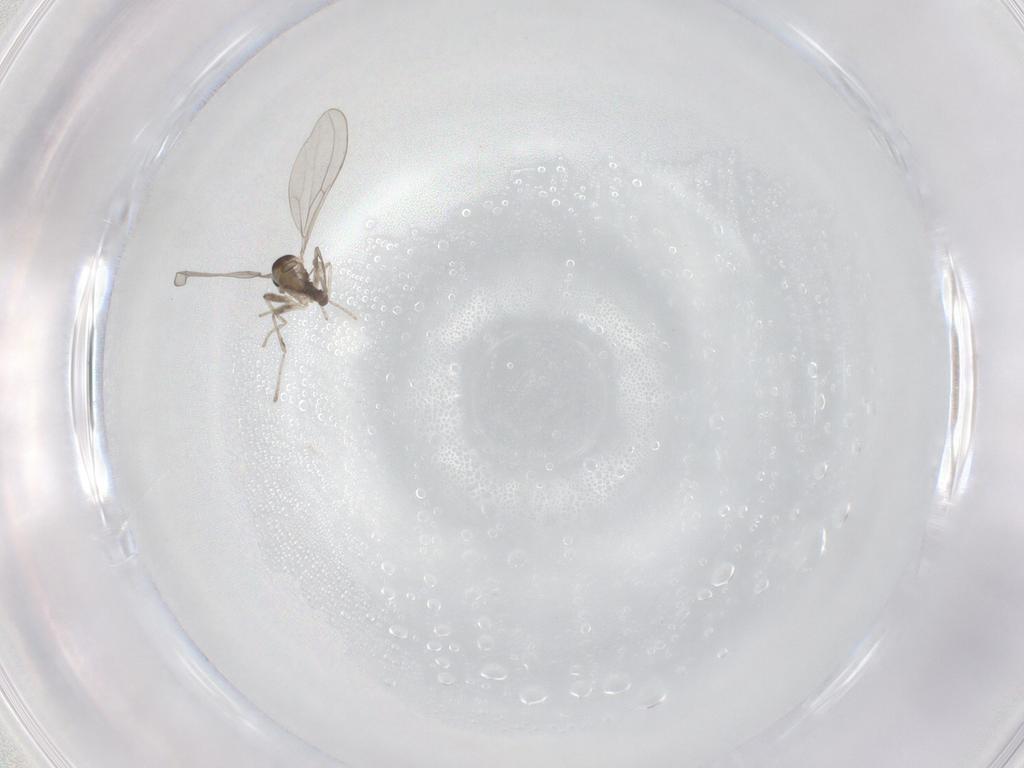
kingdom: Animalia
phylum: Arthropoda
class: Insecta
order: Diptera
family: Cecidomyiidae
